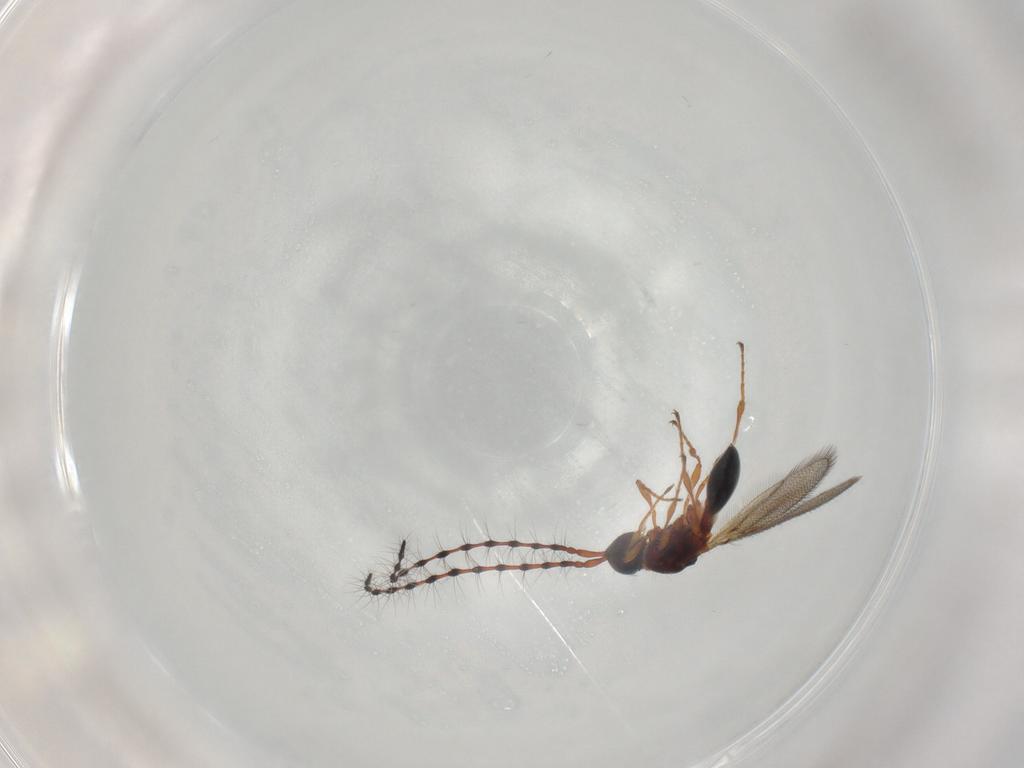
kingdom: Animalia
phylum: Arthropoda
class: Insecta
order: Hymenoptera
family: Diapriidae
